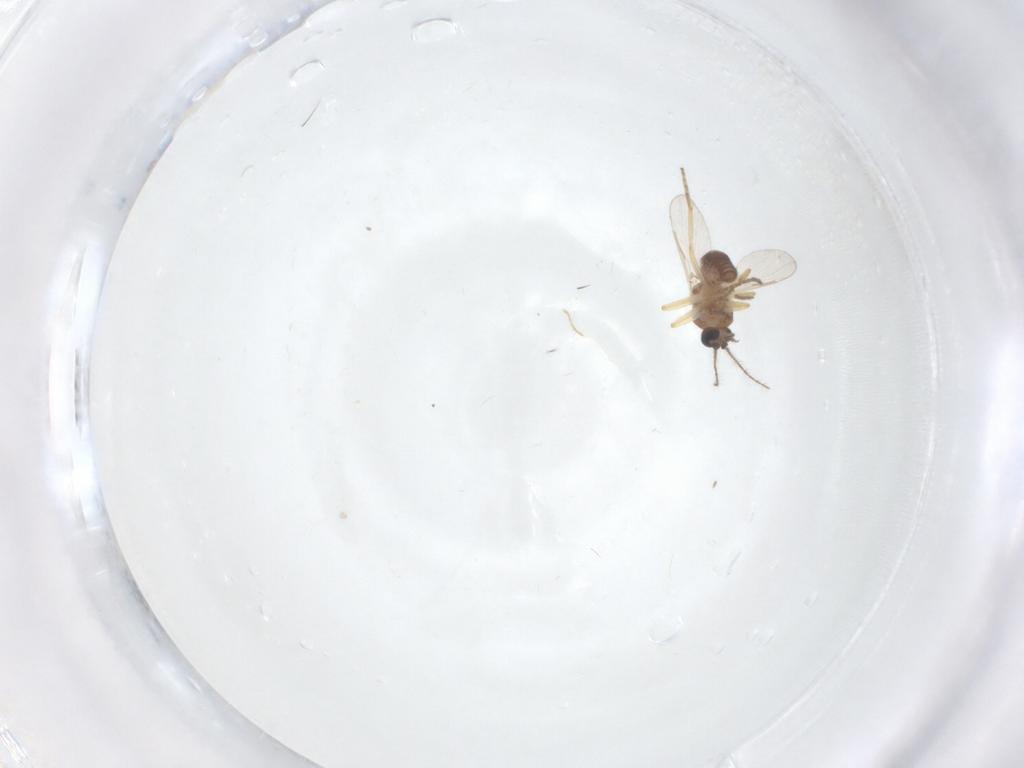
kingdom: Animalia
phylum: Arthropoda
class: Insecta
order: Diptera
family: Ceratopogonidae
